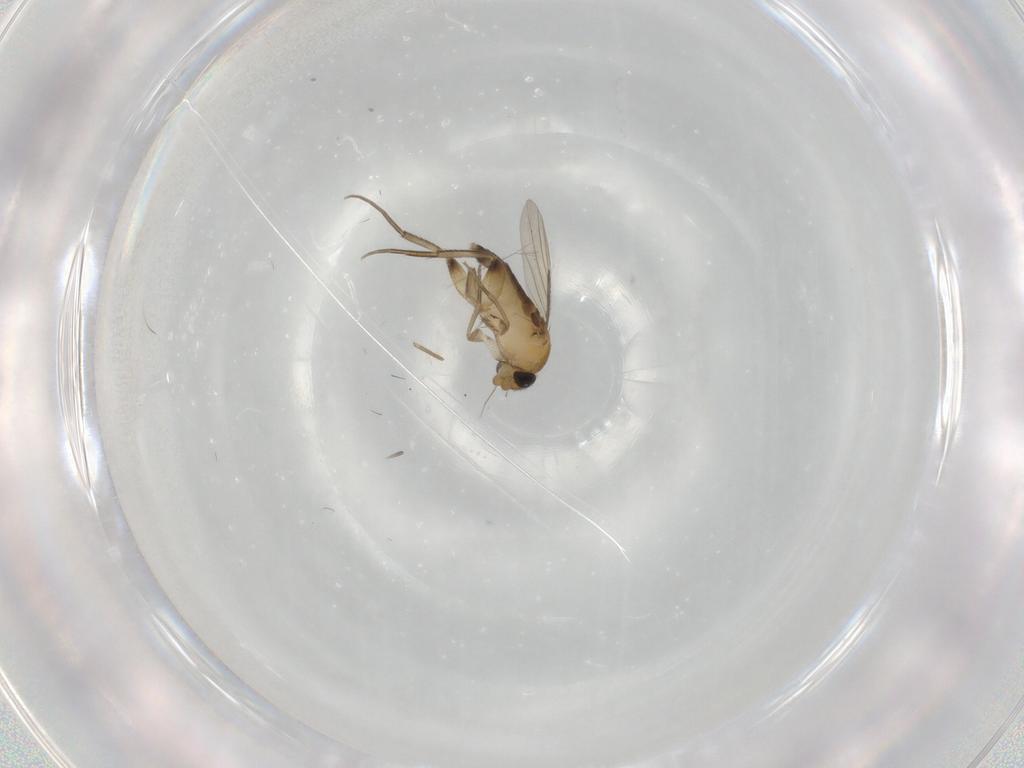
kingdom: Animalia
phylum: Arthropoda
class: Insecta
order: Diptera
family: Phoridae
